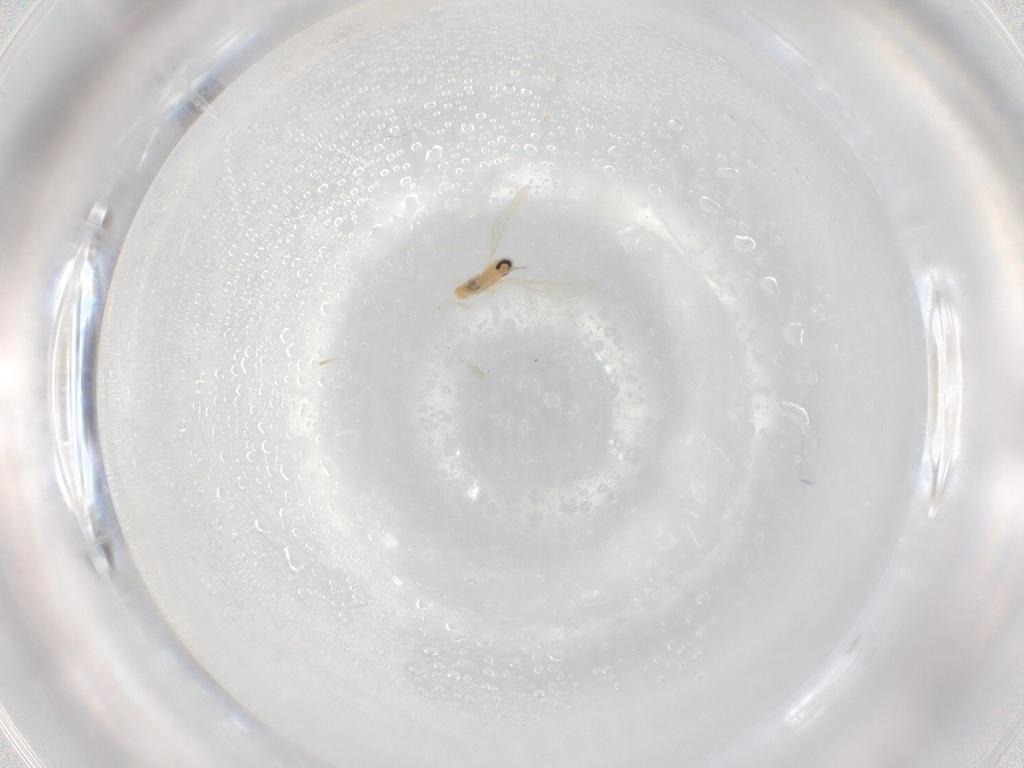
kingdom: Animalia
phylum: Arthropoda
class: Insecta
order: Diptera
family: Cecidomyiidae
